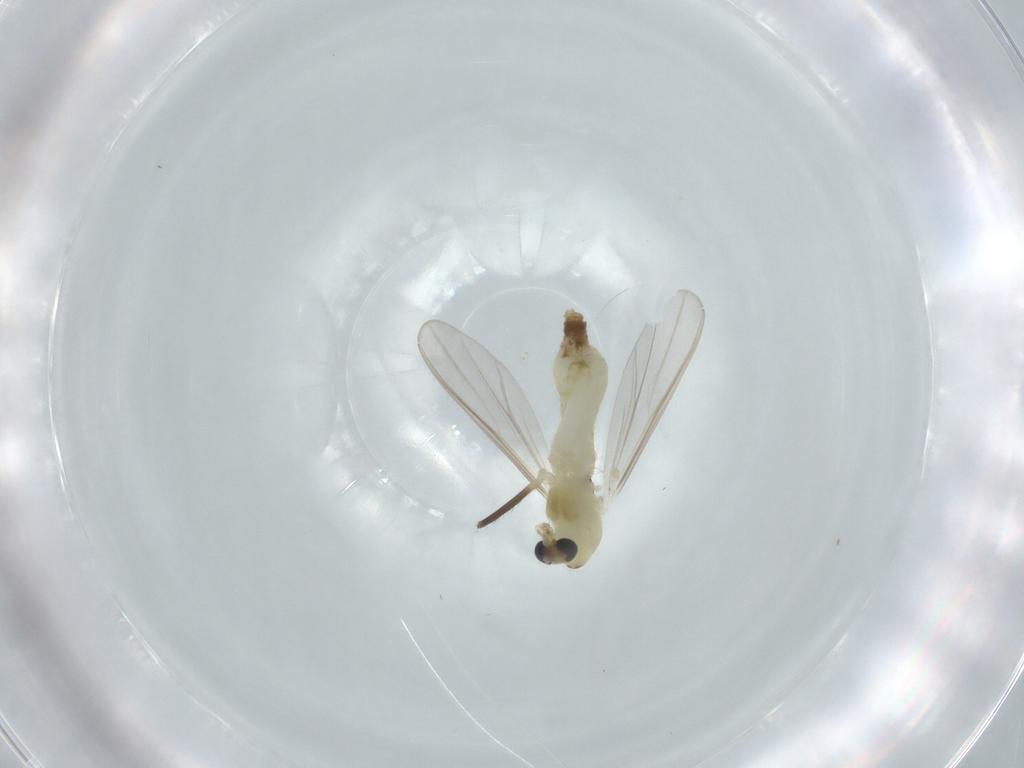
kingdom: Animalia
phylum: Arthropoda
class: Insecta
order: Diptera
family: Chironomidae
